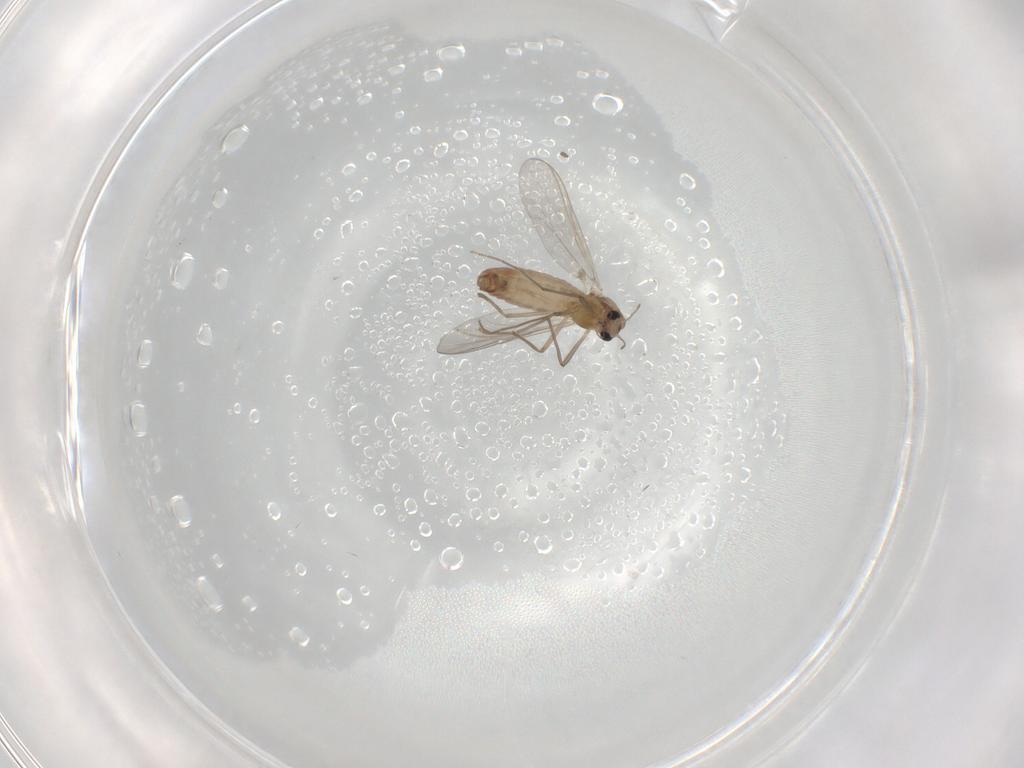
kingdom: Animalia
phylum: Arthropoda
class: Insecta
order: Diptera
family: Chironomidae
